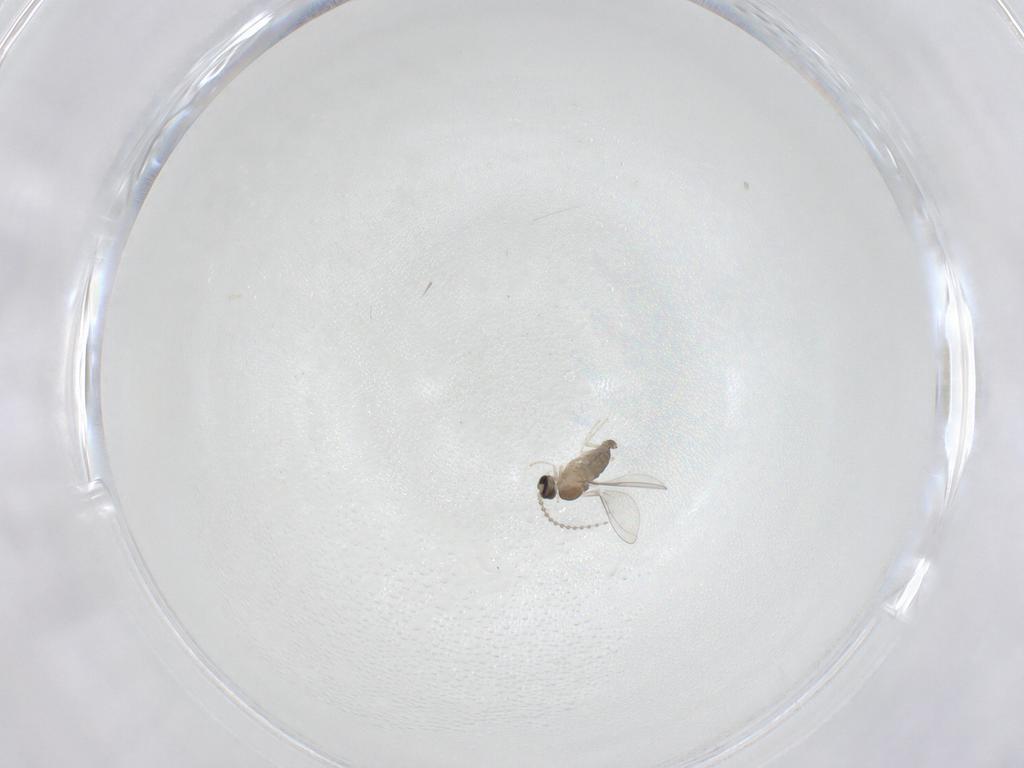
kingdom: Animalia
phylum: Arthropoda
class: Insecta
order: Diptera
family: Cecidomyiidae
